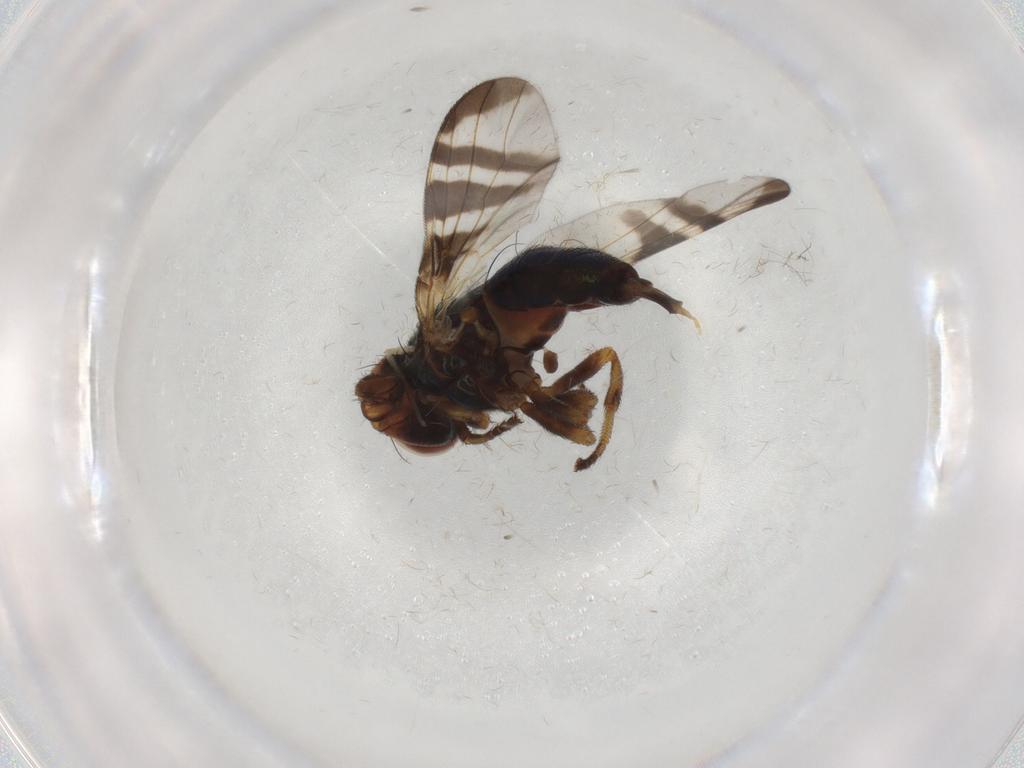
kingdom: Animalia
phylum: Arthropoda
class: Insecta
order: Diptera
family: Platystomatidae
